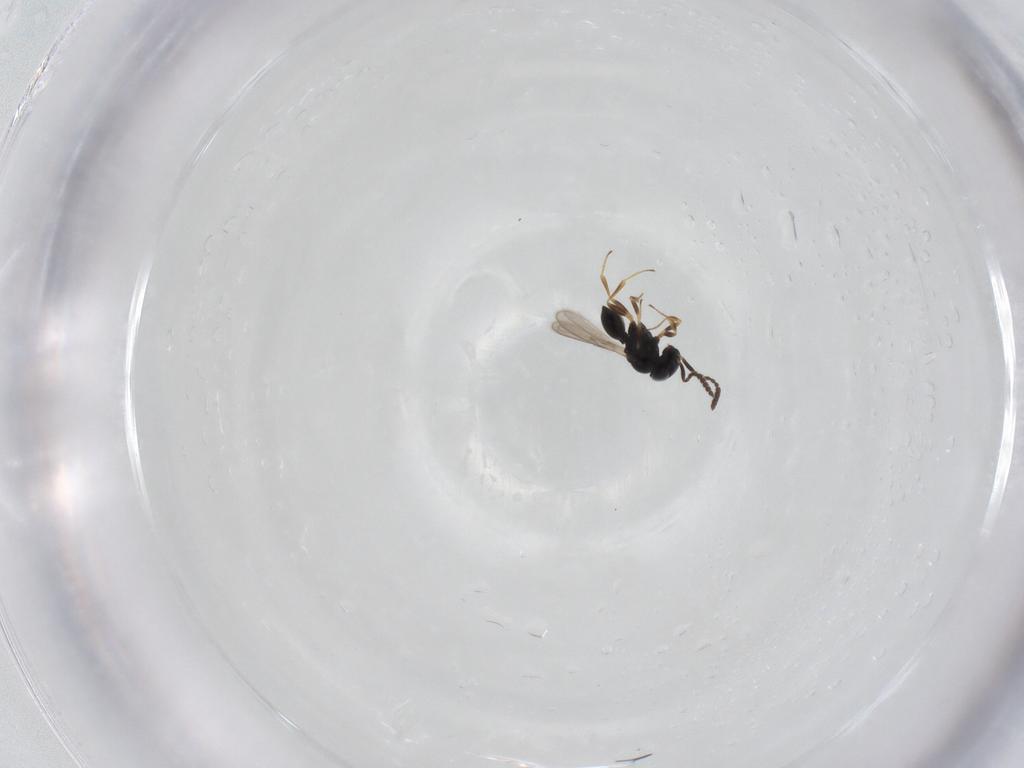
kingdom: Animalia
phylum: Arthropoda
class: Insecta
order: Hymenoptera
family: Scelionidae
